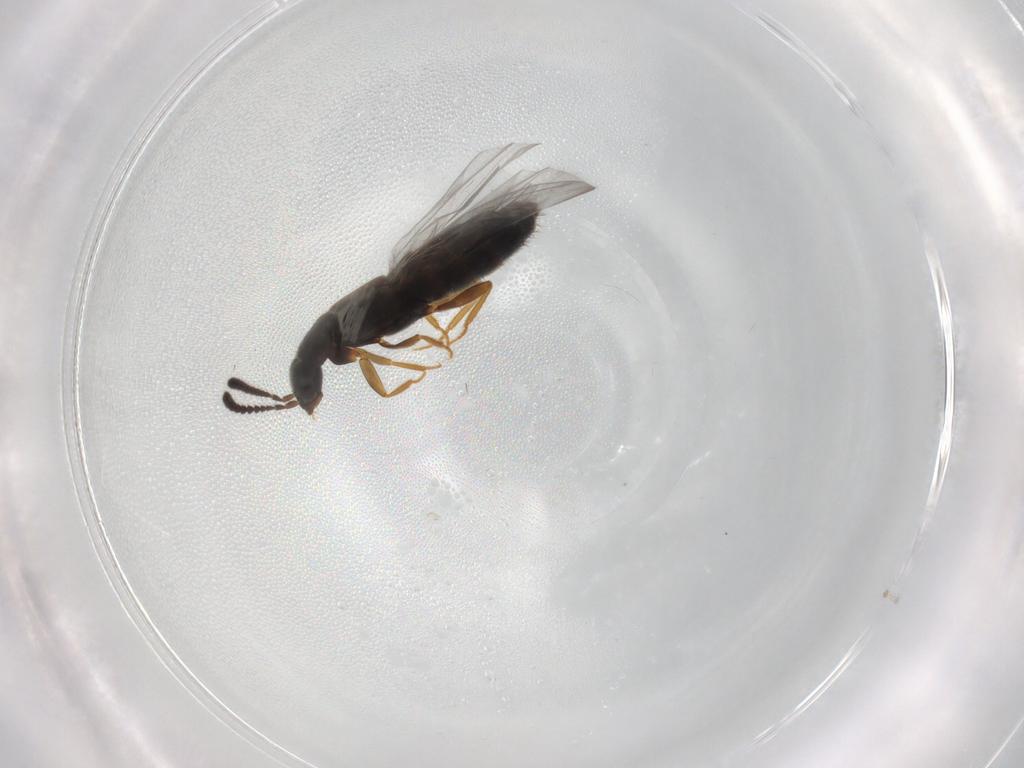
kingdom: Animalia
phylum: Arthropoda
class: Insecta
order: Coleoptera
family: Staphylinidae
